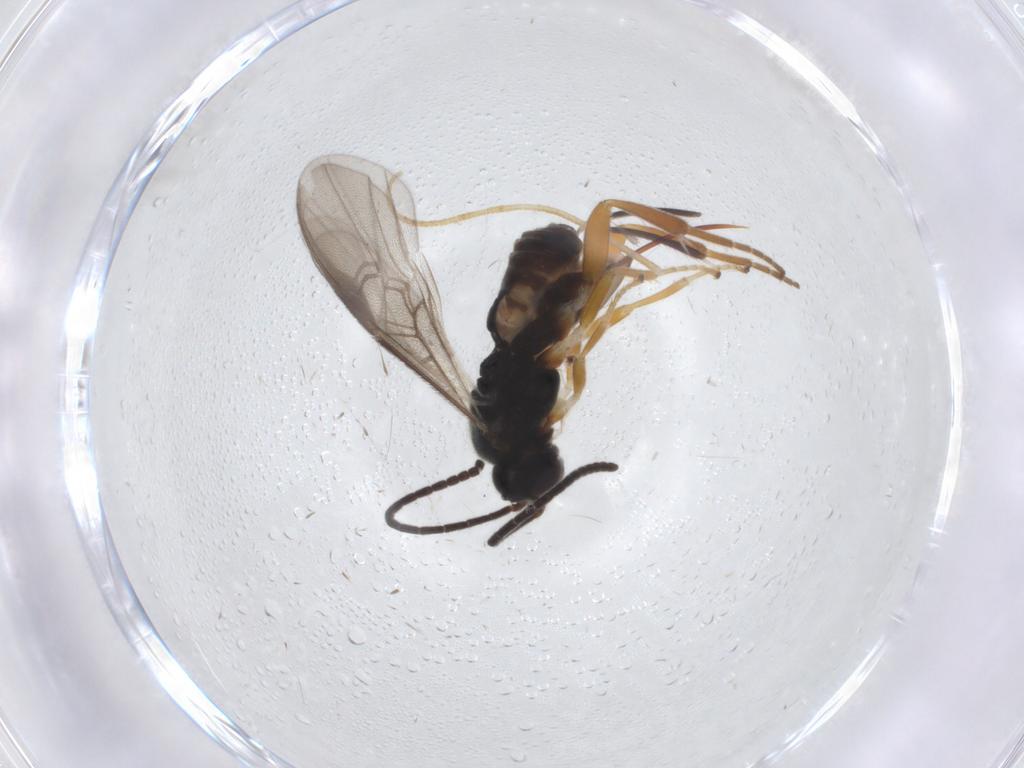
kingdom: Animalia
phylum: Arthropoda
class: Insecta
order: Hymenoptera
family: Braconidae
